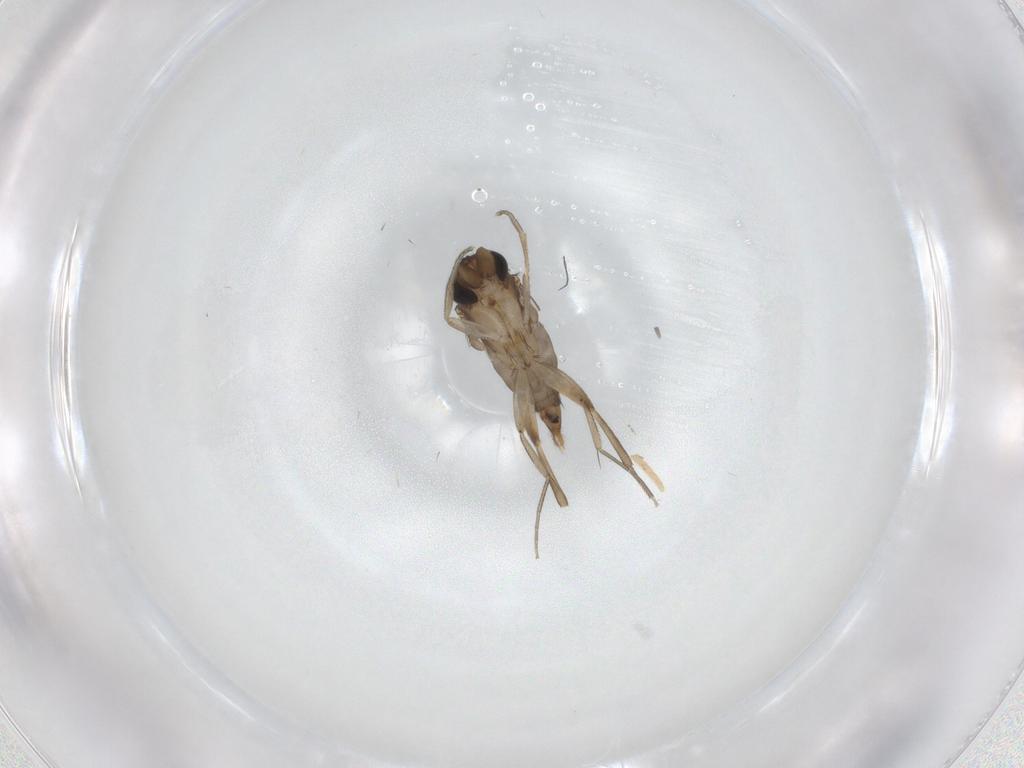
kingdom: Animalia
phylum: Arthropoda
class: Insecta
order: Diptera
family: Phoridae
